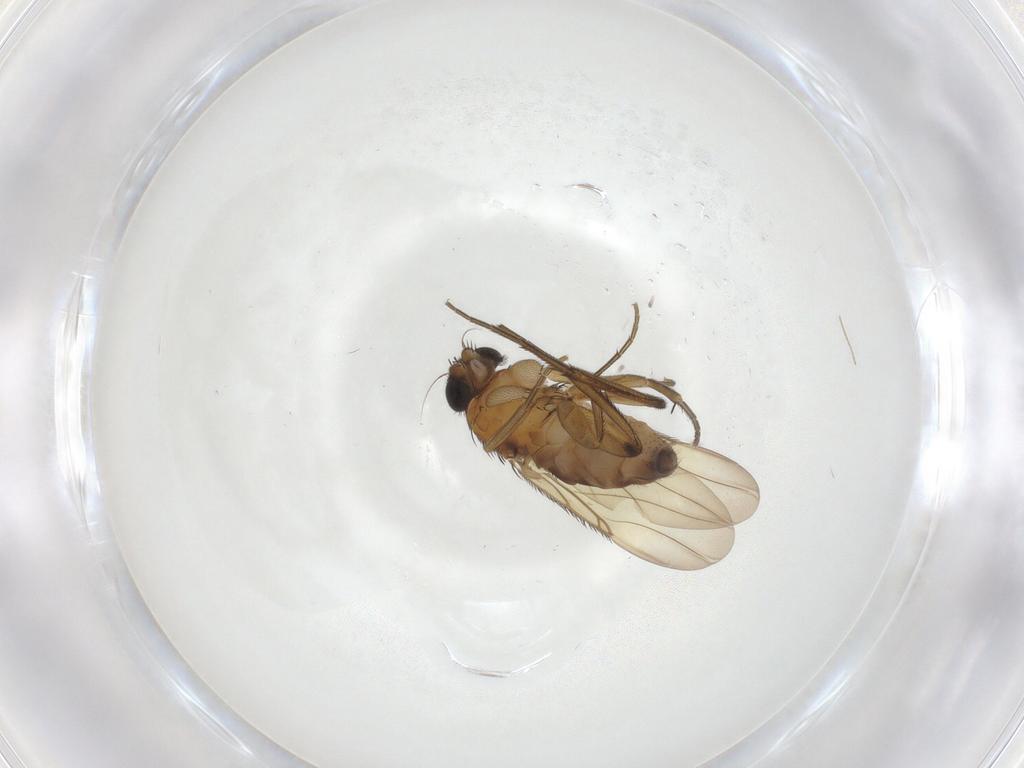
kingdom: Animalia
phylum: Arthropoda
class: Insecta
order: Diptera
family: Phoridae
